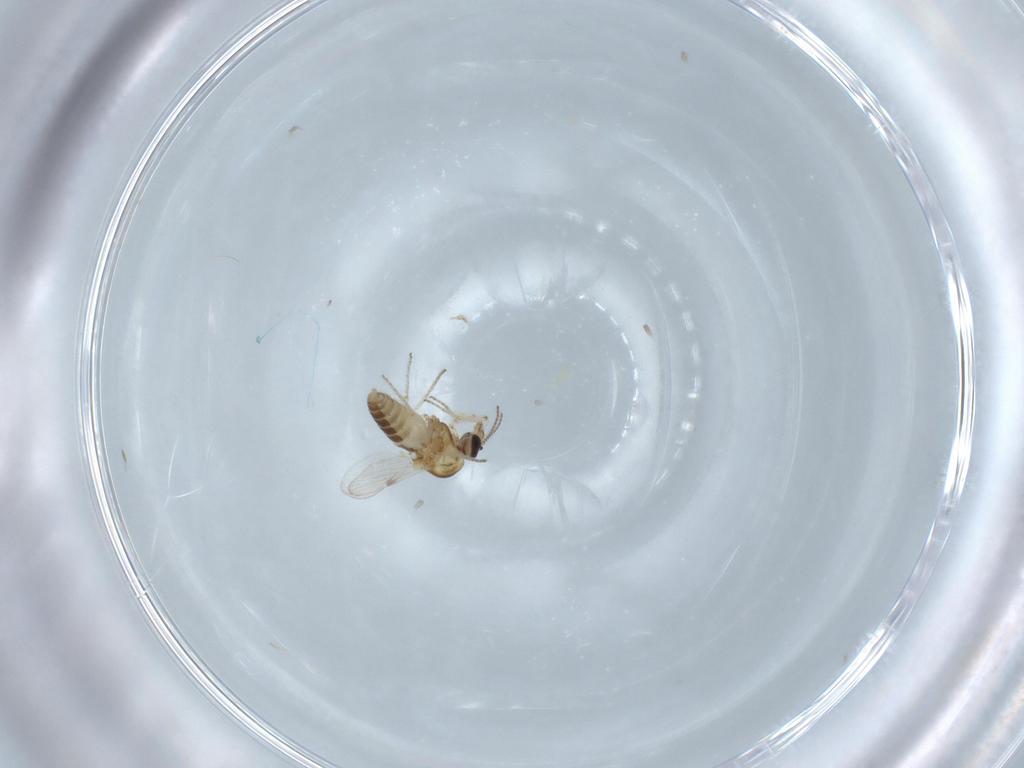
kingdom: Animalia
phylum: Arthropoda
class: Insecta
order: Diptera
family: Ceratopogonidae
